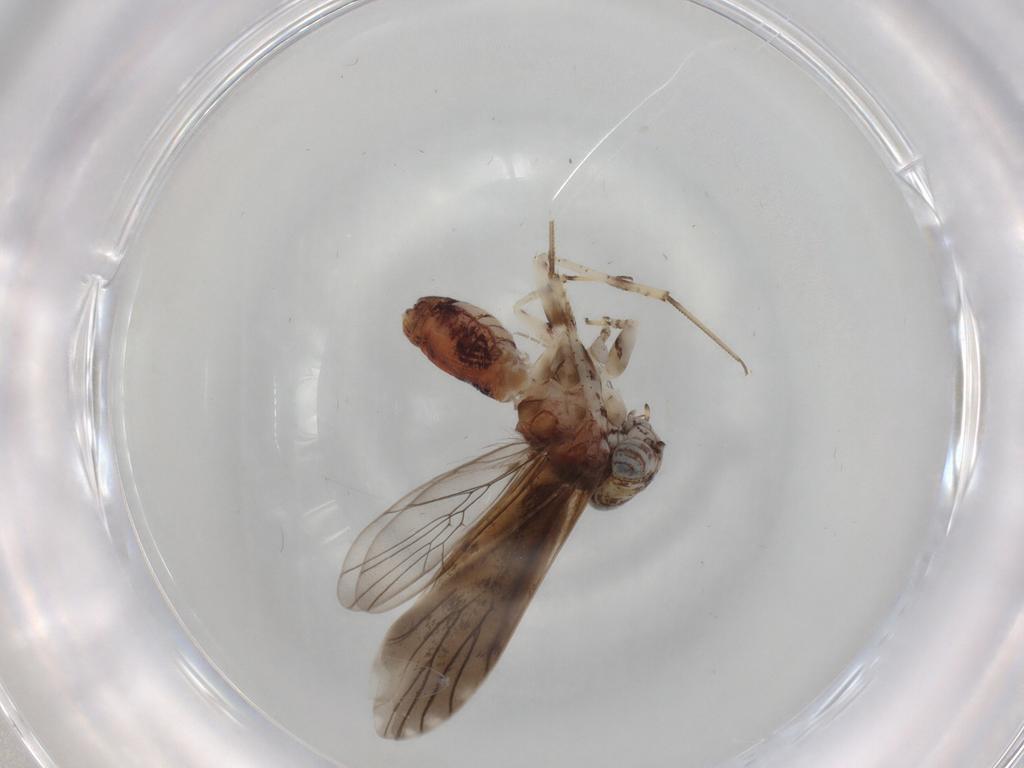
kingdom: Animalia
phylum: Arthropoda
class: Insecta
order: Psocodea
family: Amphientomidae
